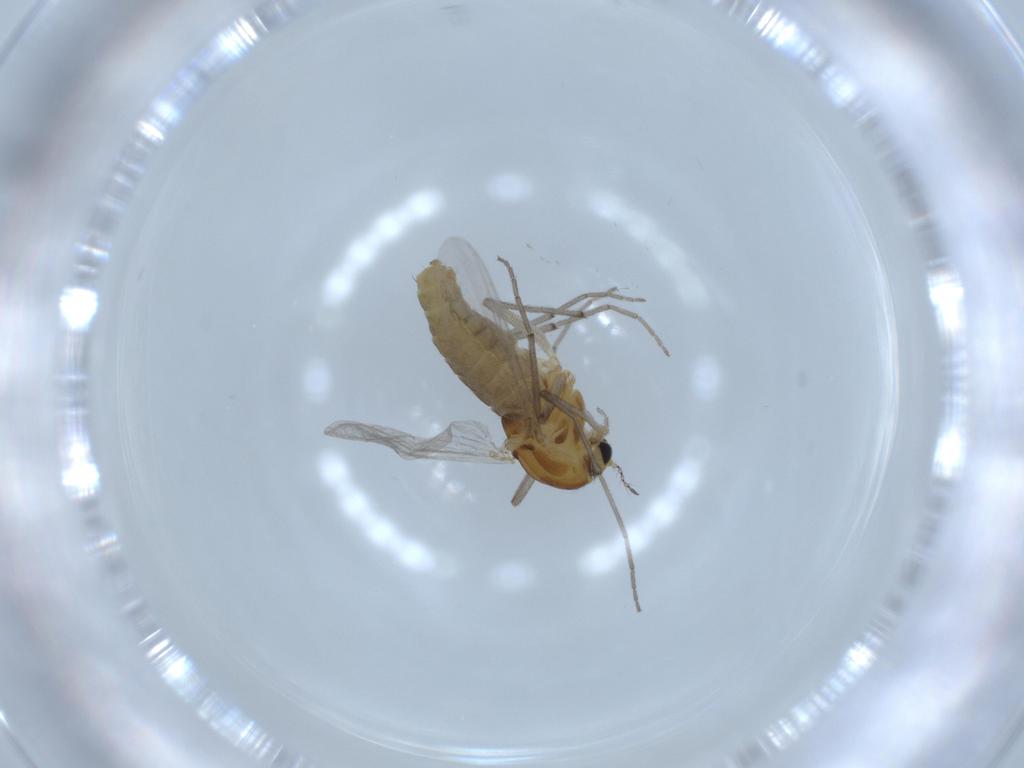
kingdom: Animalia
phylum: Arthropoda
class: Insecta
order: Diptera
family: Chironomidae
